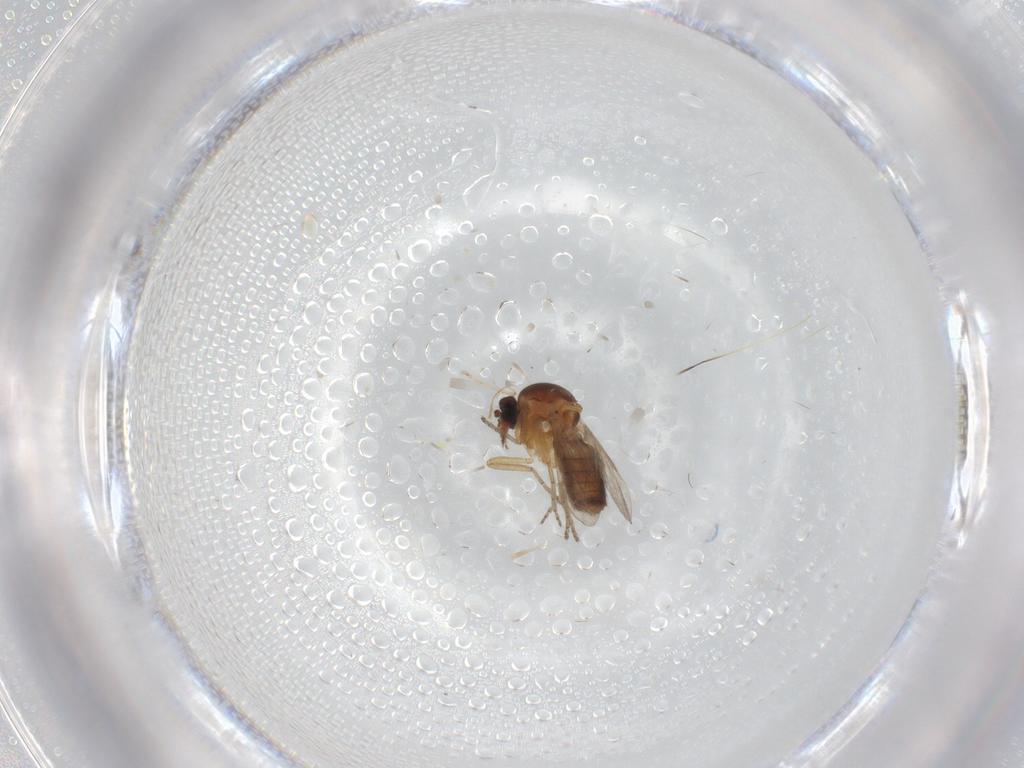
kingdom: Animalia
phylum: Arthropoda
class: Insecta
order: Diptera
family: Ceratopogonidae
